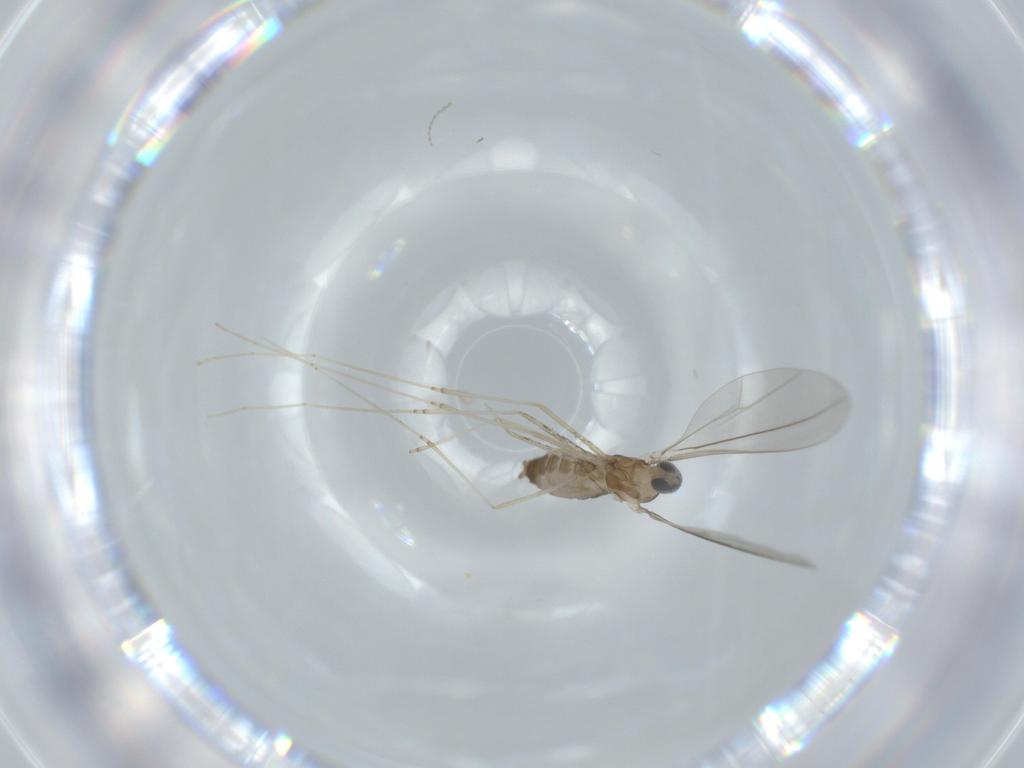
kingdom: Animalia
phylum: Arthropoda
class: Insecta
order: Diptera
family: Cecidomyiidae
